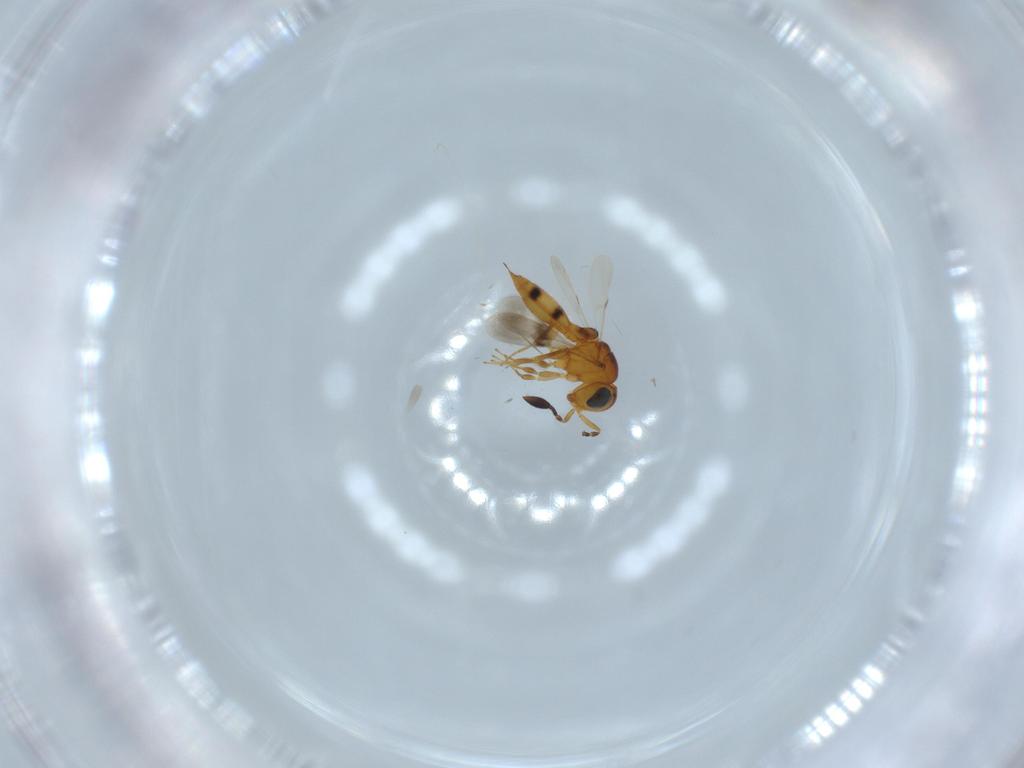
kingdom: Animalia
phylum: Arthropoda
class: Insecta
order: Hymenoptera
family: Scelionidae
